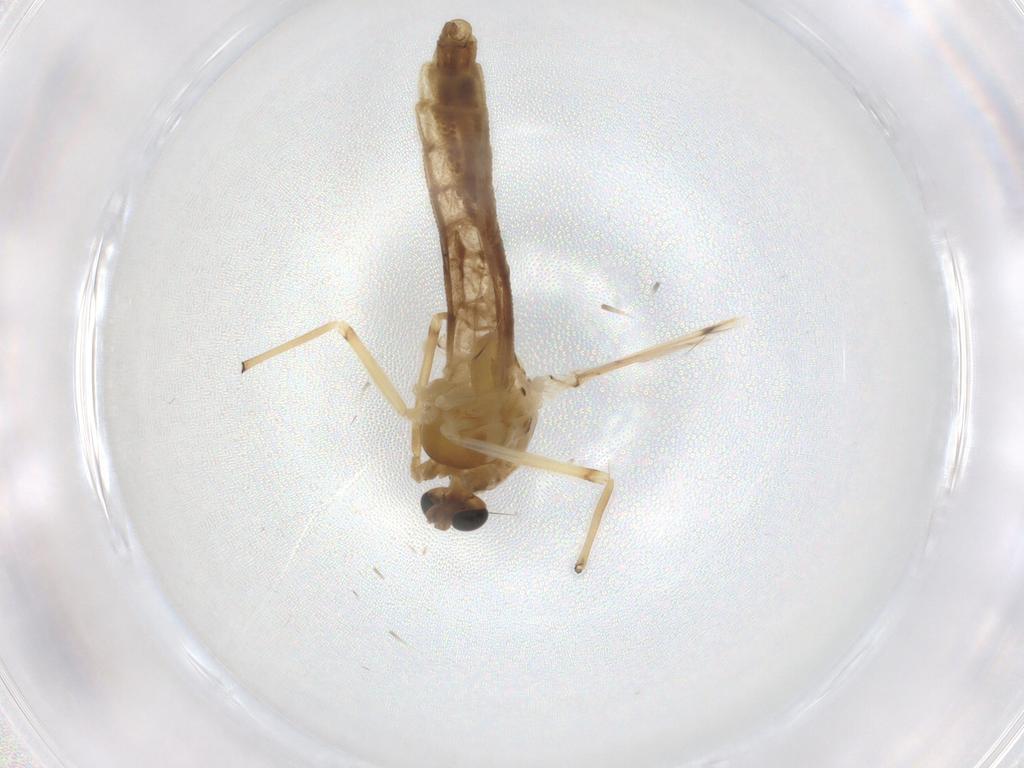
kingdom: Animalia
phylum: Arthropoda
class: Insecta
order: Diptera
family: Chironomidae
